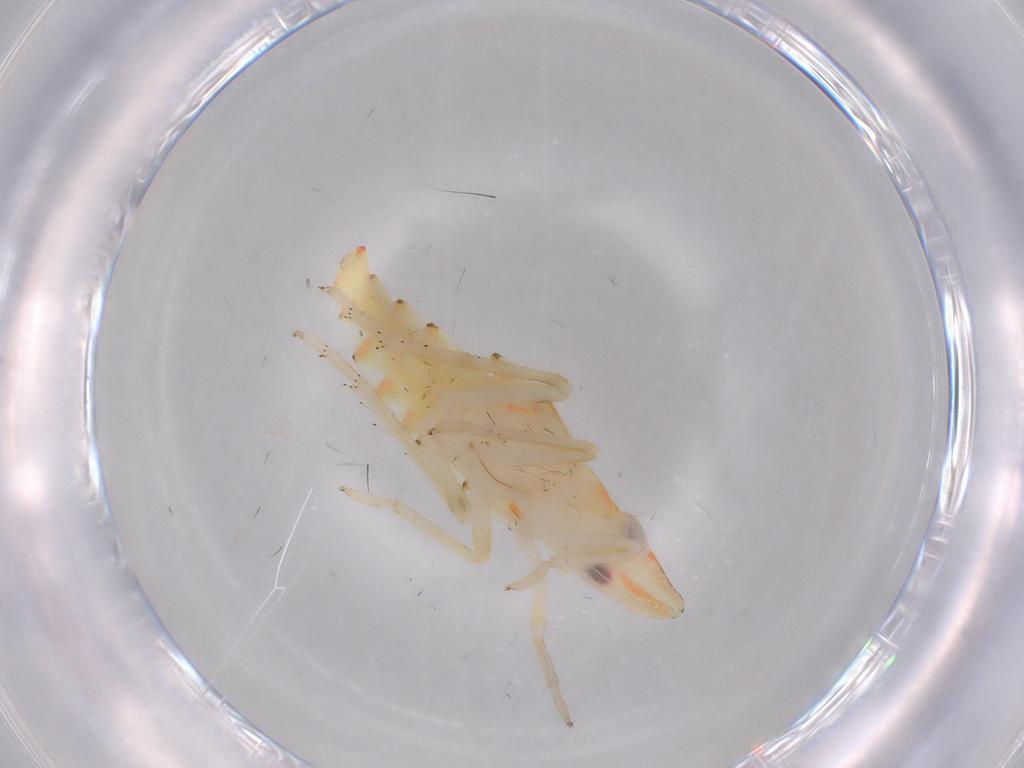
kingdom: Animalia
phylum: Arthropoda
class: Insecta
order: Hemiptera
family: Tropiduchidae
